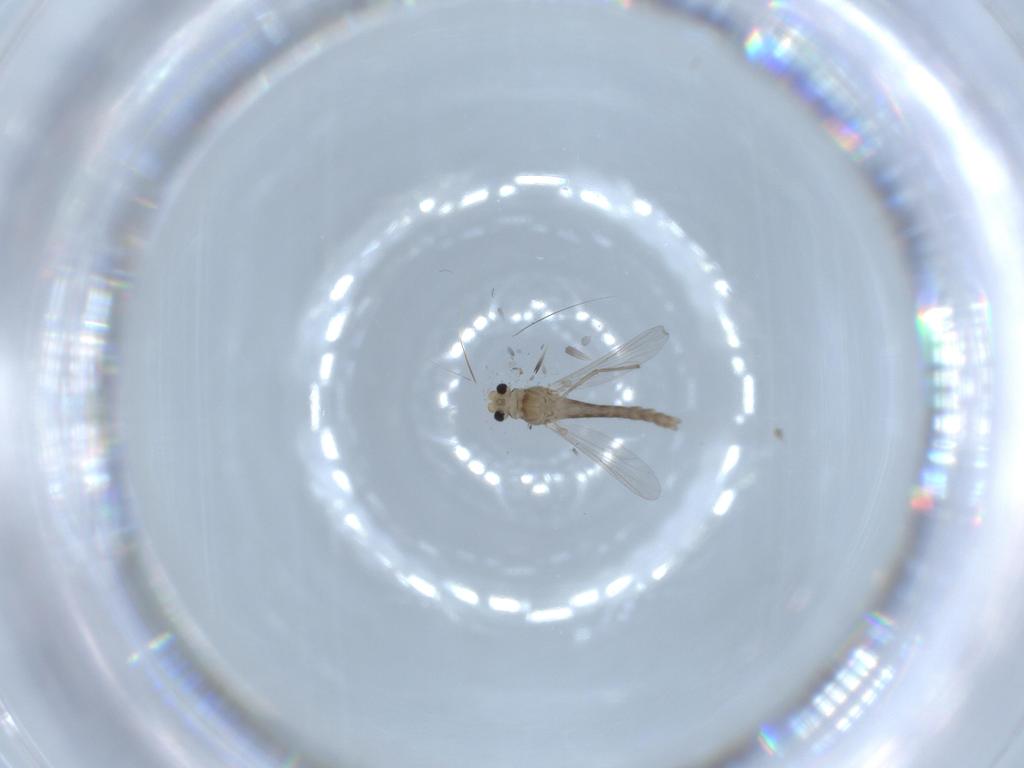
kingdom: Animalia
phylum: Arthropoda
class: Insecta
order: Diptera
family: Chironomidae
